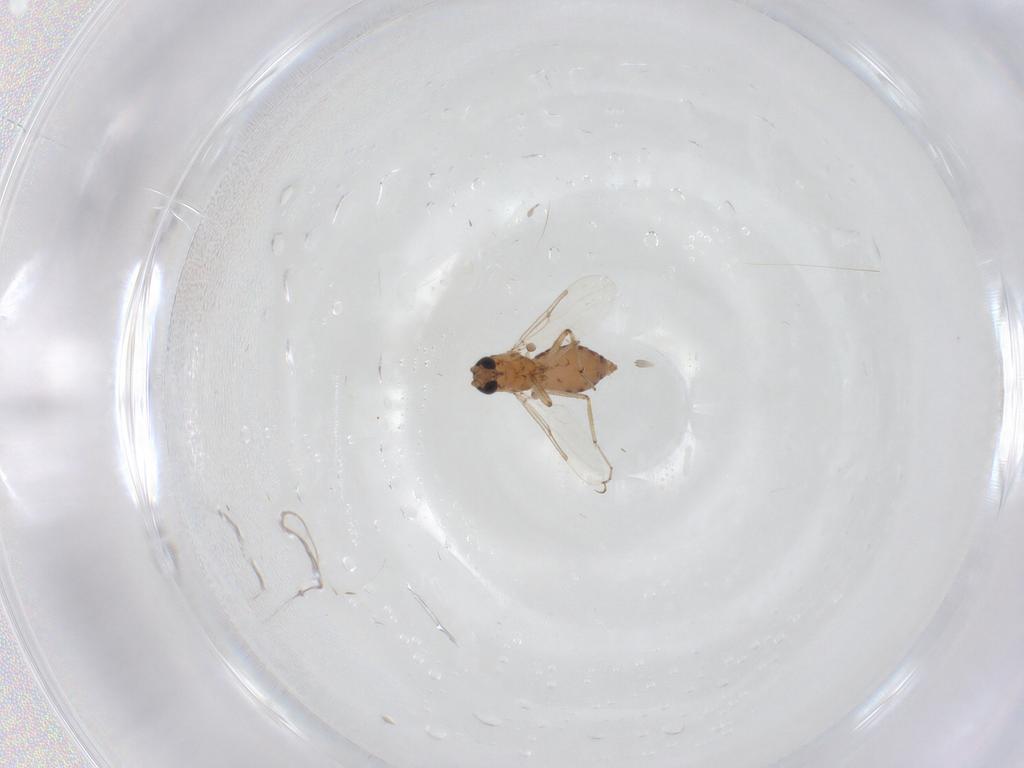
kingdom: Animalia
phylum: Arthropoda
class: Insecta
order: Diptera
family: Ceratopogonidae
